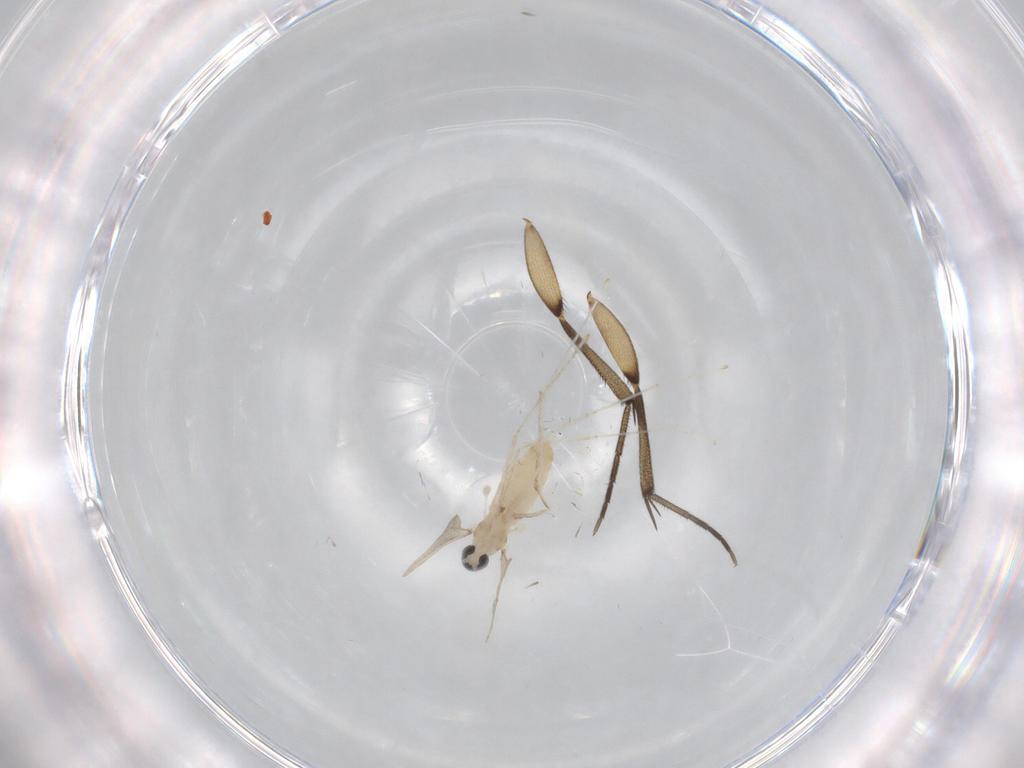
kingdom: Animalia
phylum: Arthropoda
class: Insecta
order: Diptera
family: Cecidomyiidae
